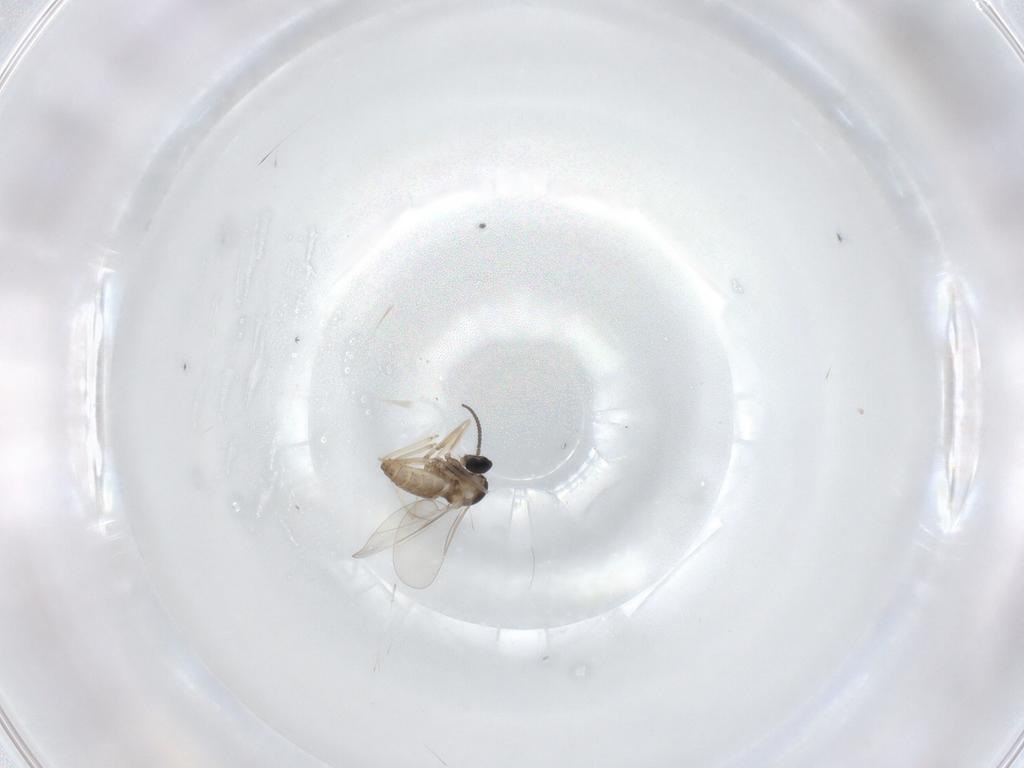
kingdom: Animalia
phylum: Arthropoda
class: Insecta
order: Diptera
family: Cecidomyiidae
